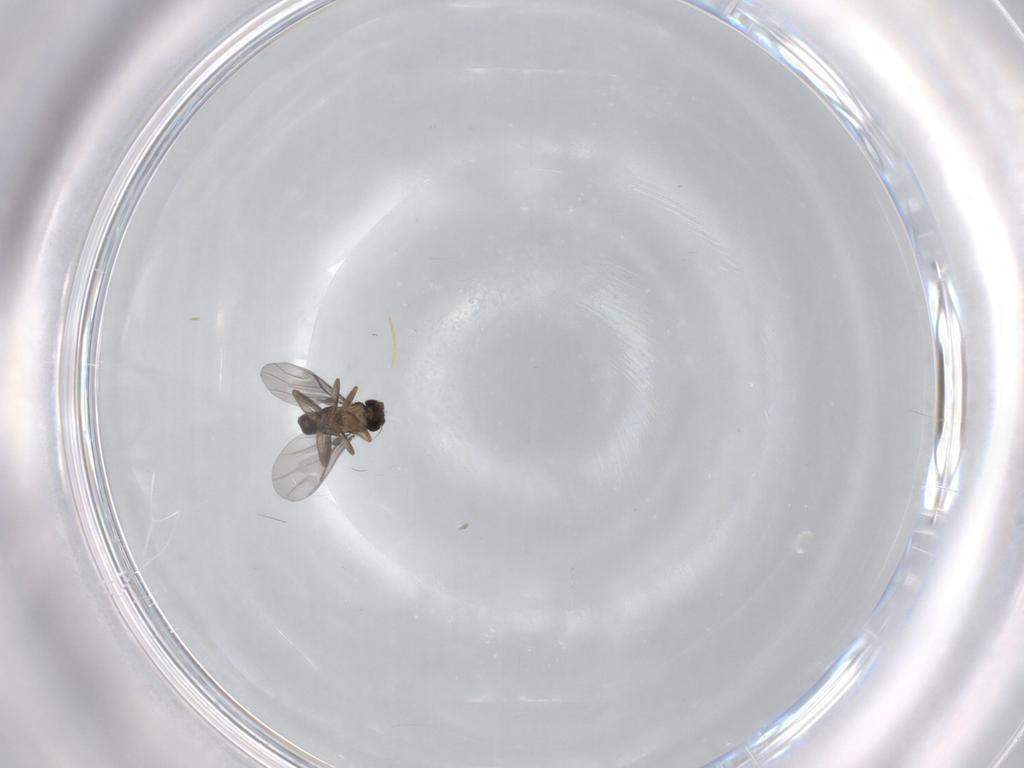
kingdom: Animalia
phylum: Arthropoda
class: Insecta
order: Diptera
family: Chironomidae
